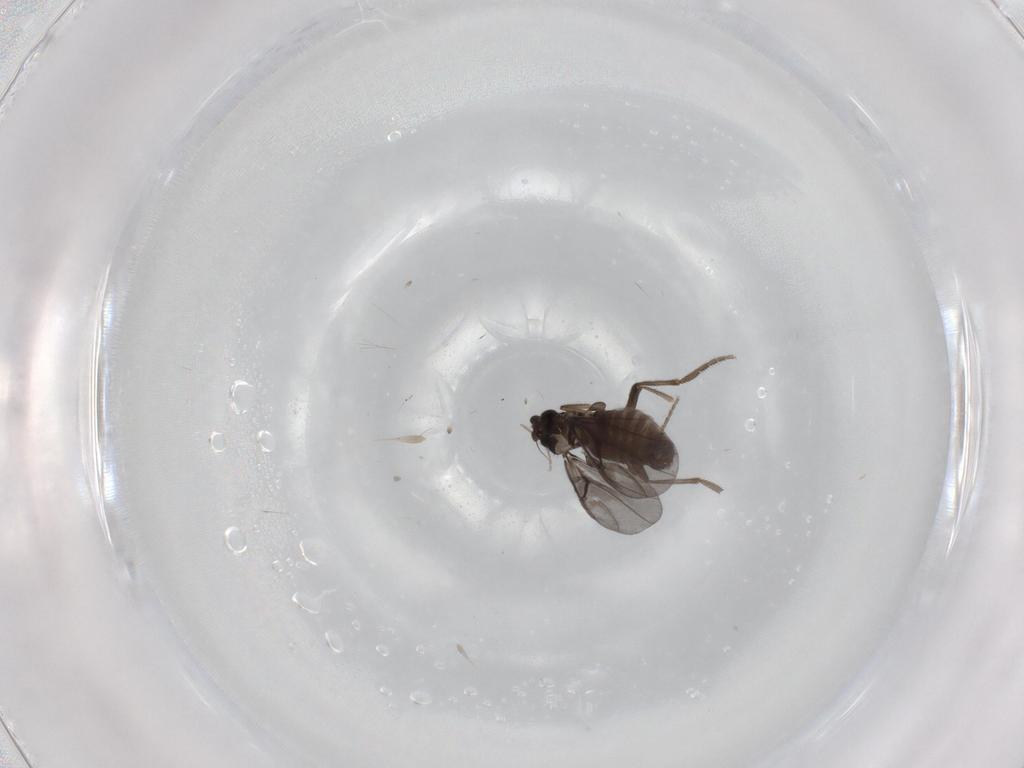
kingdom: Animalia
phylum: Arthropoda
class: Insecta
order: Diptera
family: Phoridae
